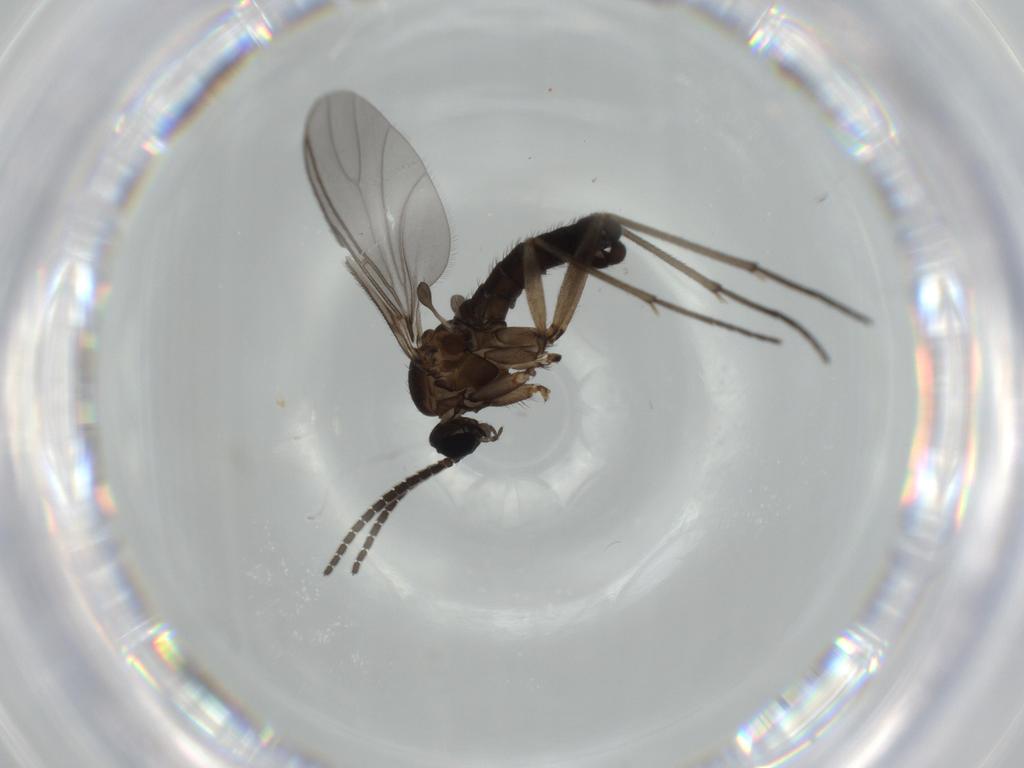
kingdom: Animalia
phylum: Arthropoda
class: Insecta
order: Diptera
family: Sciaridae
